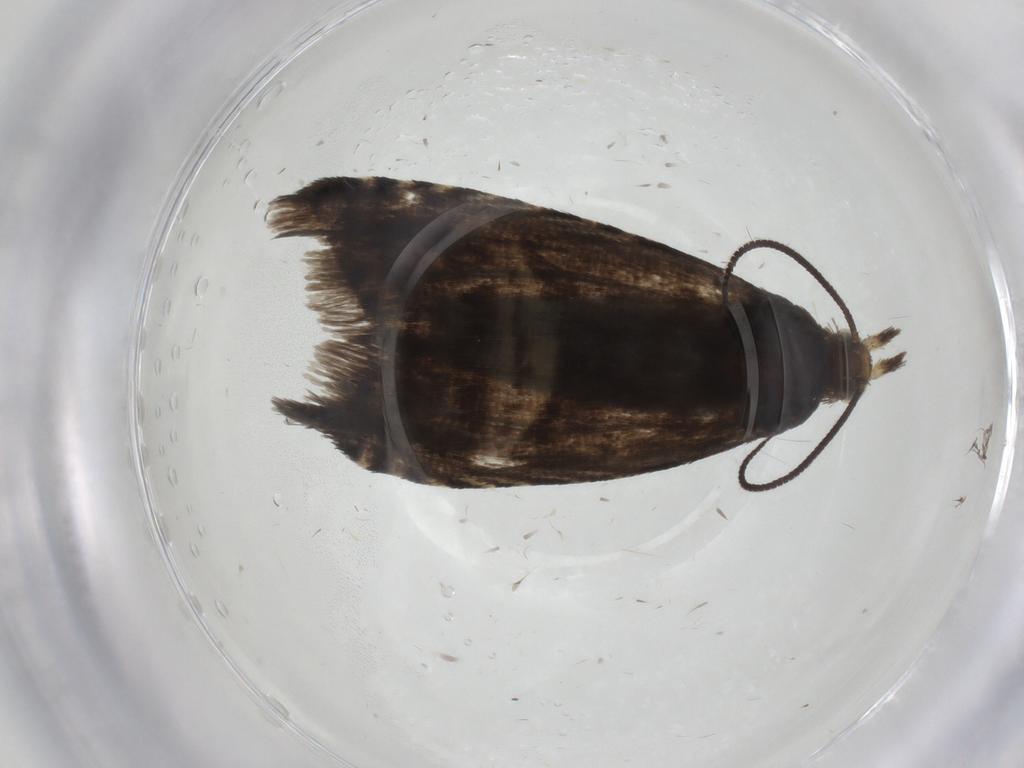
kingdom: Animalia
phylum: Arthropoda
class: Insecta
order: Lepidoptera
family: Tortricidae
